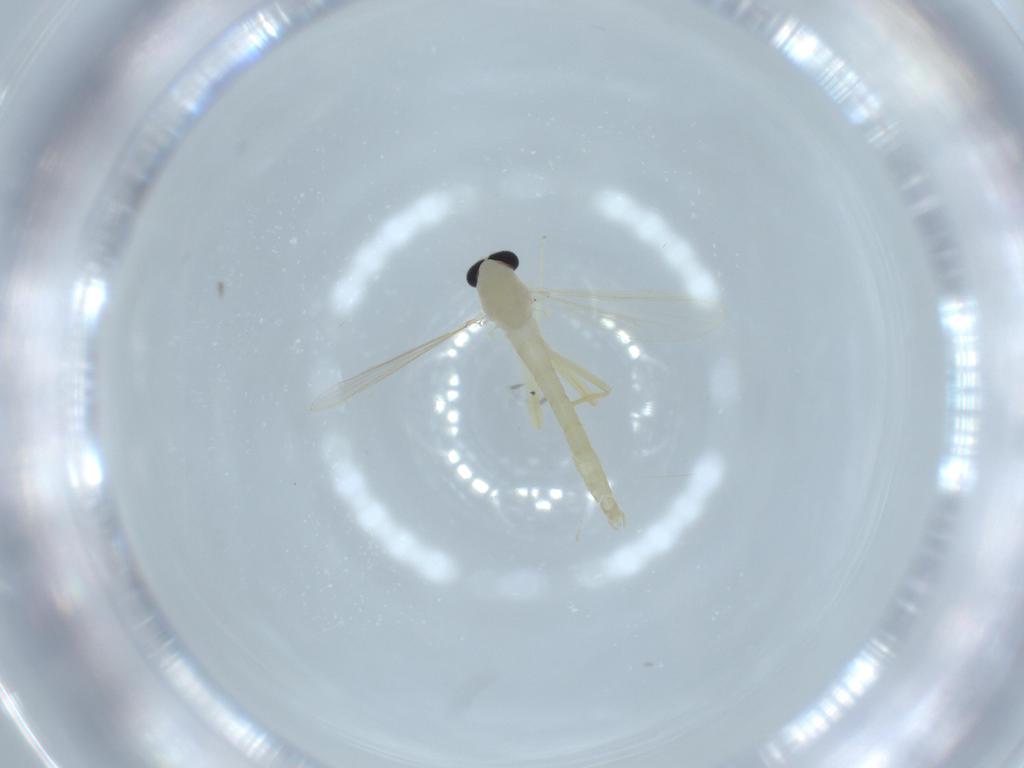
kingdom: Animalia
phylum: Arthropoda
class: Insecta
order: Diptera
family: Chironomidae
